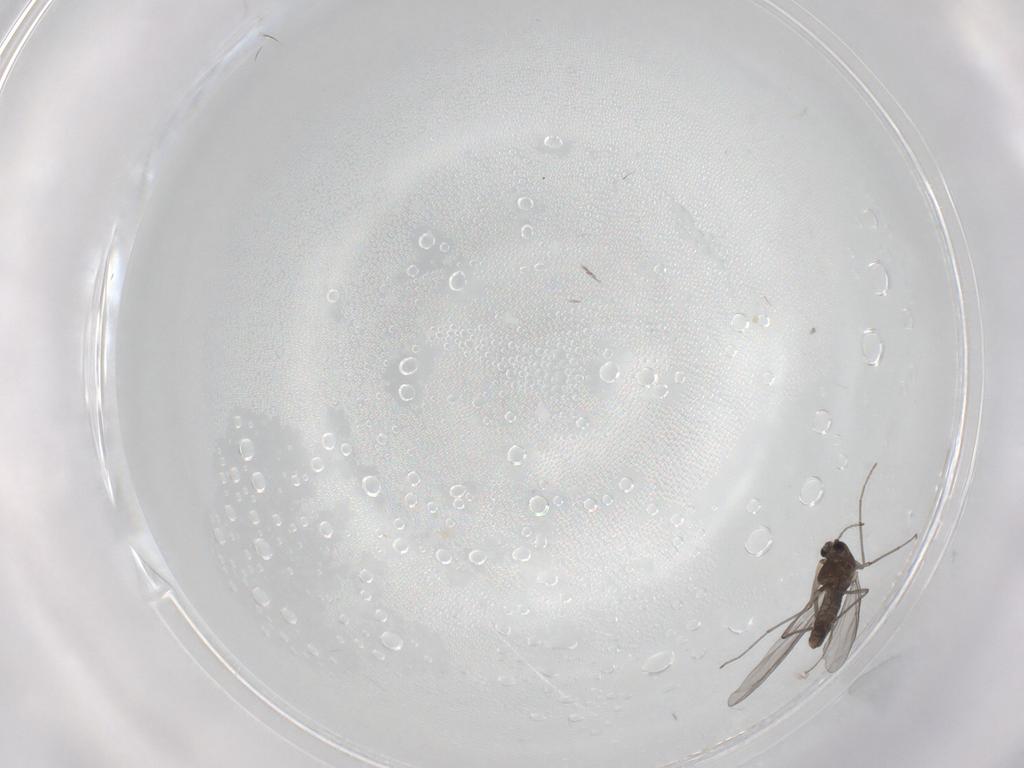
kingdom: Animalia
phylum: Arthropoda
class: Insecta
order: Diptera
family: Chironomidae
